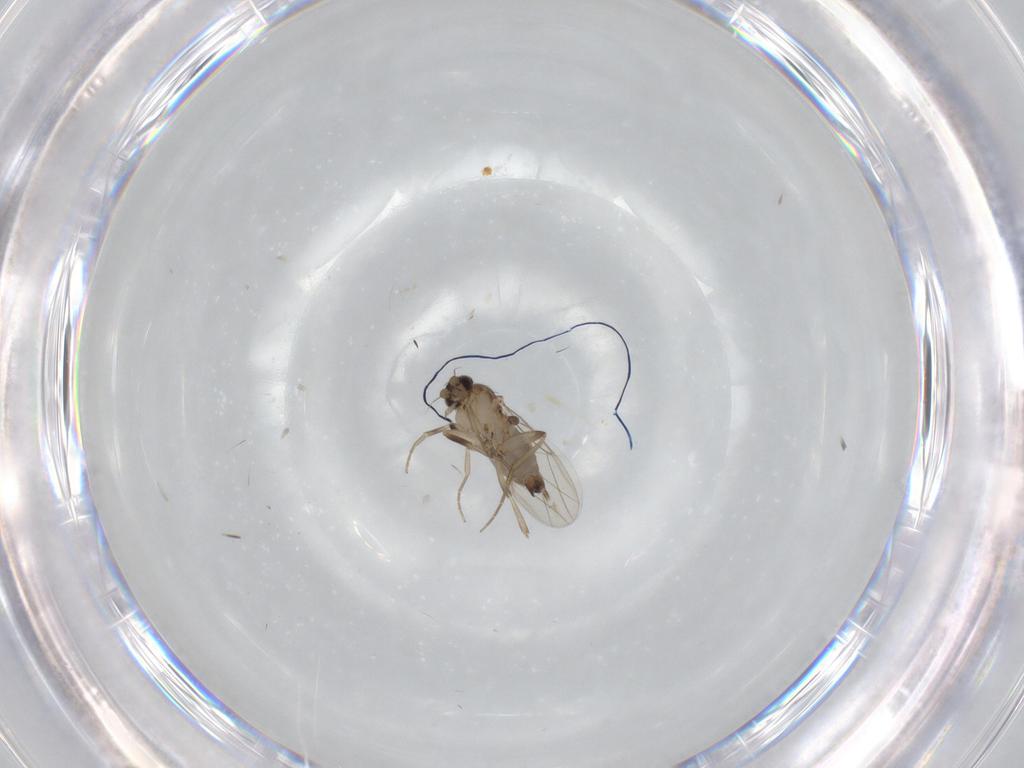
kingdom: Animalia
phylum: Arthropoda
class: Insecta
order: Diptera
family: Phoridae
